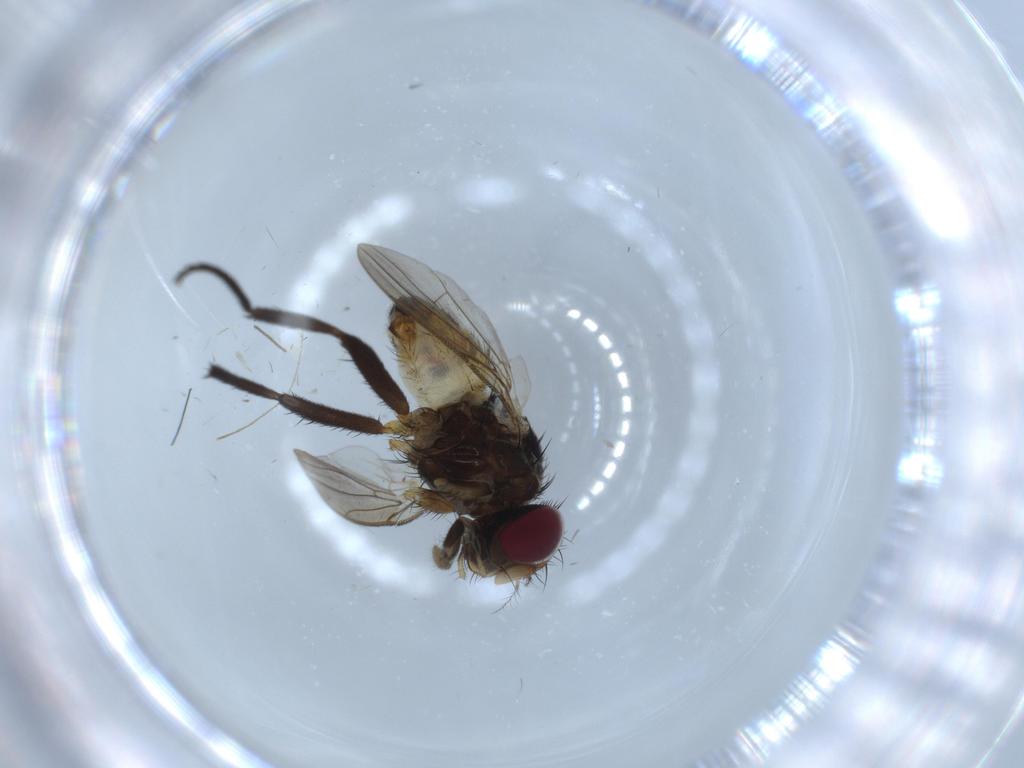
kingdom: Animalia
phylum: Arthropoda
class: Insecta
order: Diptera
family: Anthomyiidae
